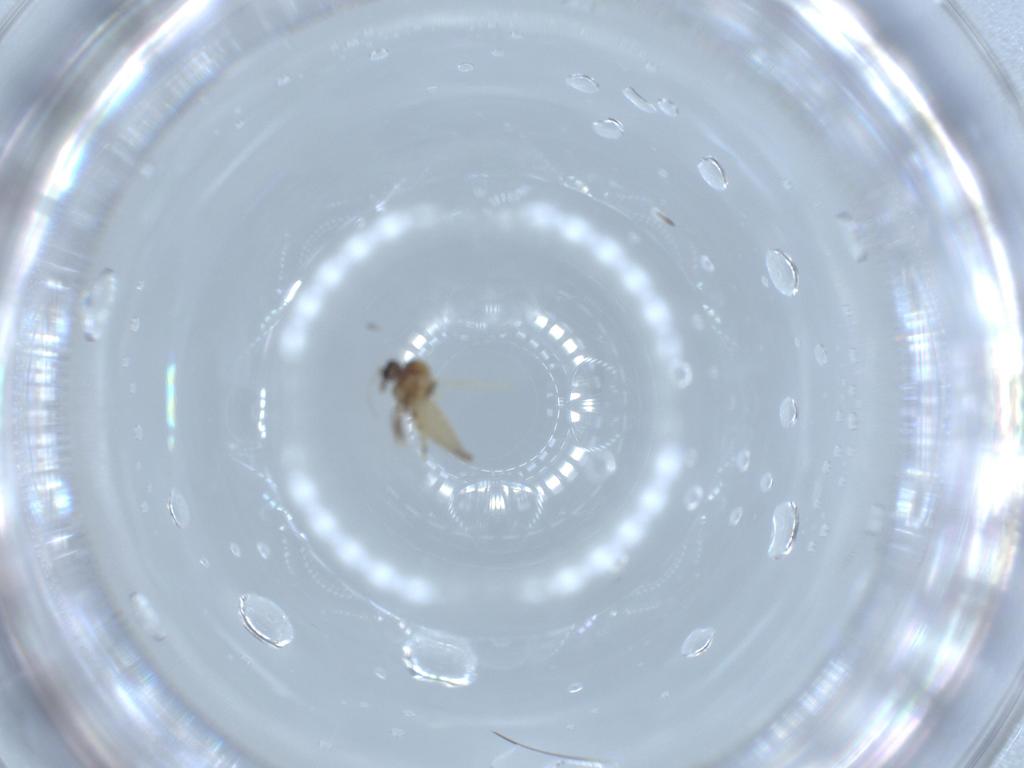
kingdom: Animalia
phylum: Arthropoda
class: Insecta
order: Diptera
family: Ceratopogonidae
